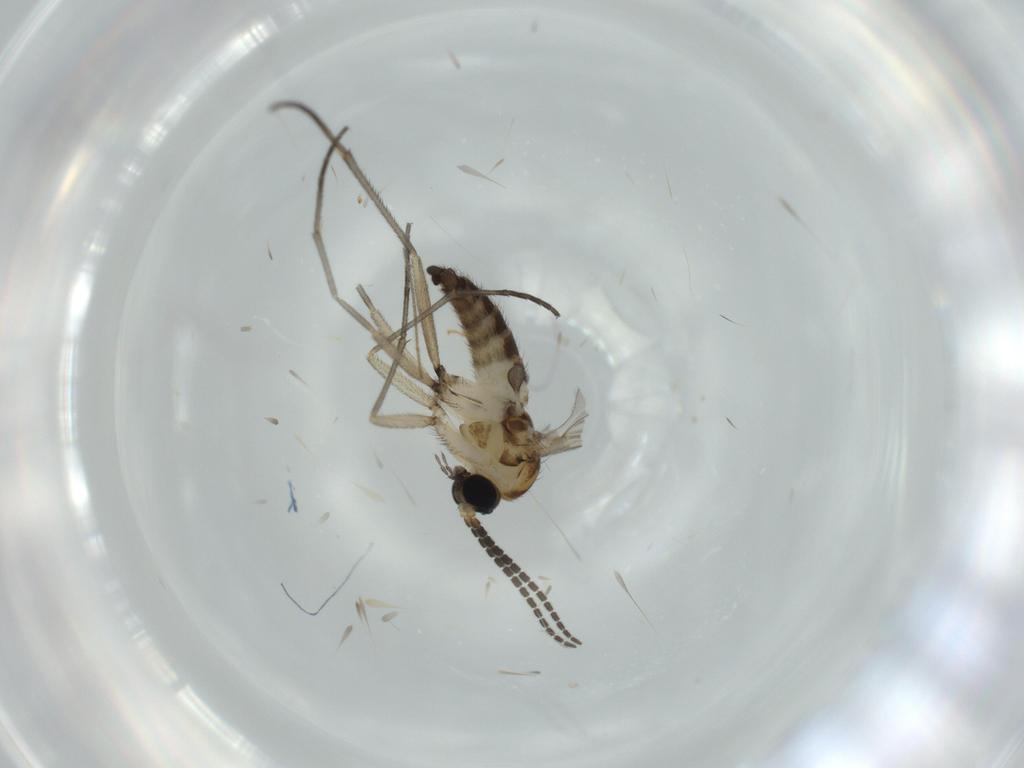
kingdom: Animalia
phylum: Arthropoda
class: Insecta
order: Diptera
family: Sciaridae
